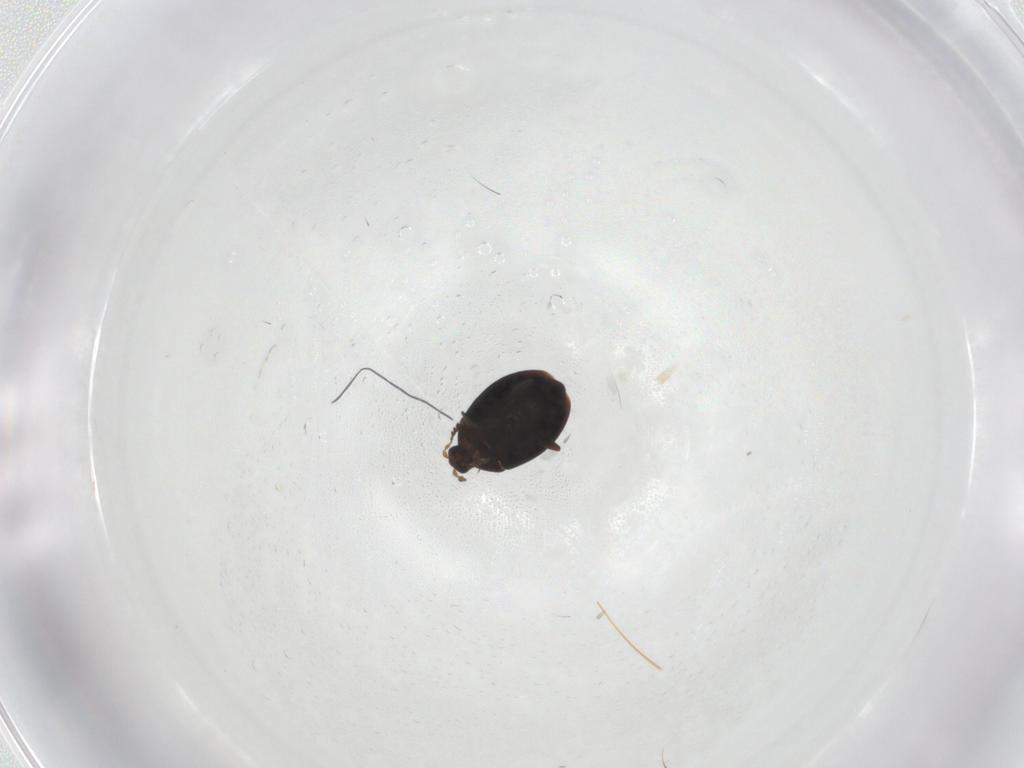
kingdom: Animalia
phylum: Arthropoda
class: Insecta
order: Coleoptera
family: Corylophidae
